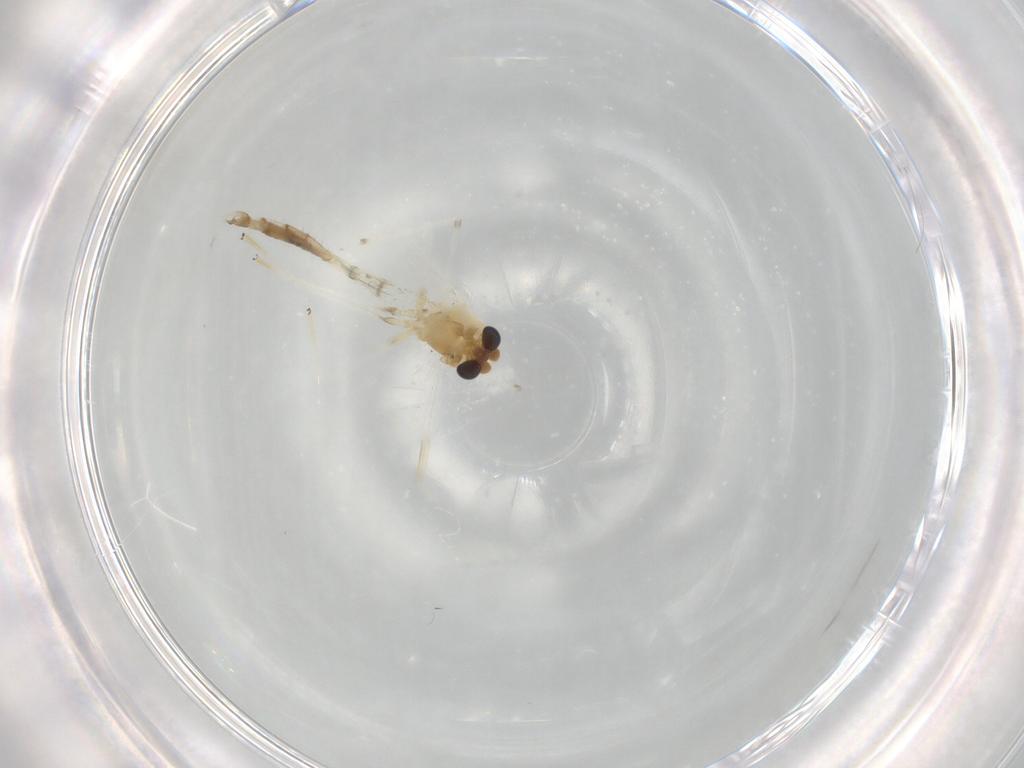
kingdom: Animalia
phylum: Arthropoda
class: Insecta
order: Diptera
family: Chironomidae
